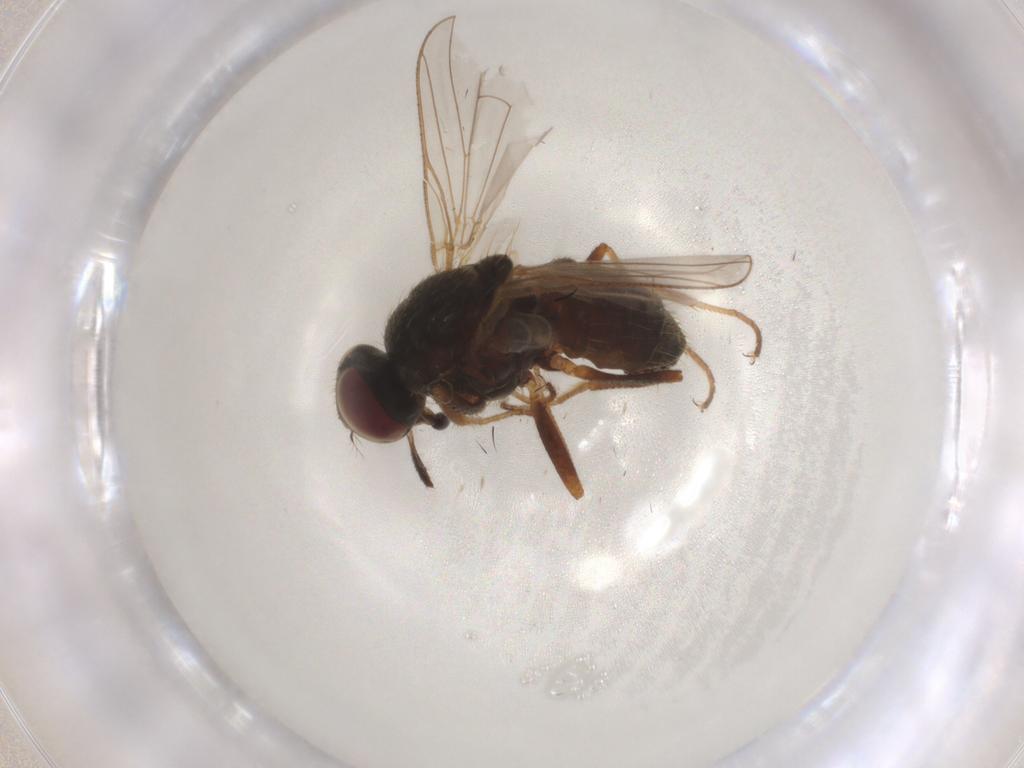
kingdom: Animalia
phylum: Arthropoda
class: Insecta
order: Diptera
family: Muscidae
